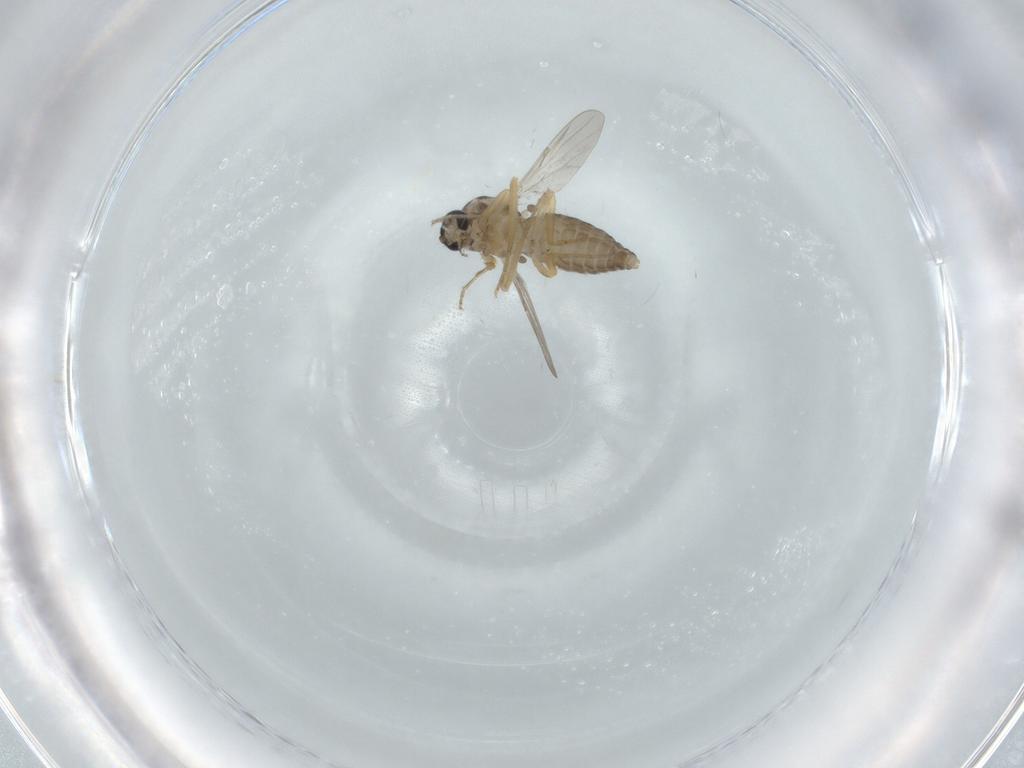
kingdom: Animalia
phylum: Arthropoda
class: Insecta
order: Diptera
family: Ceratopogonidae
